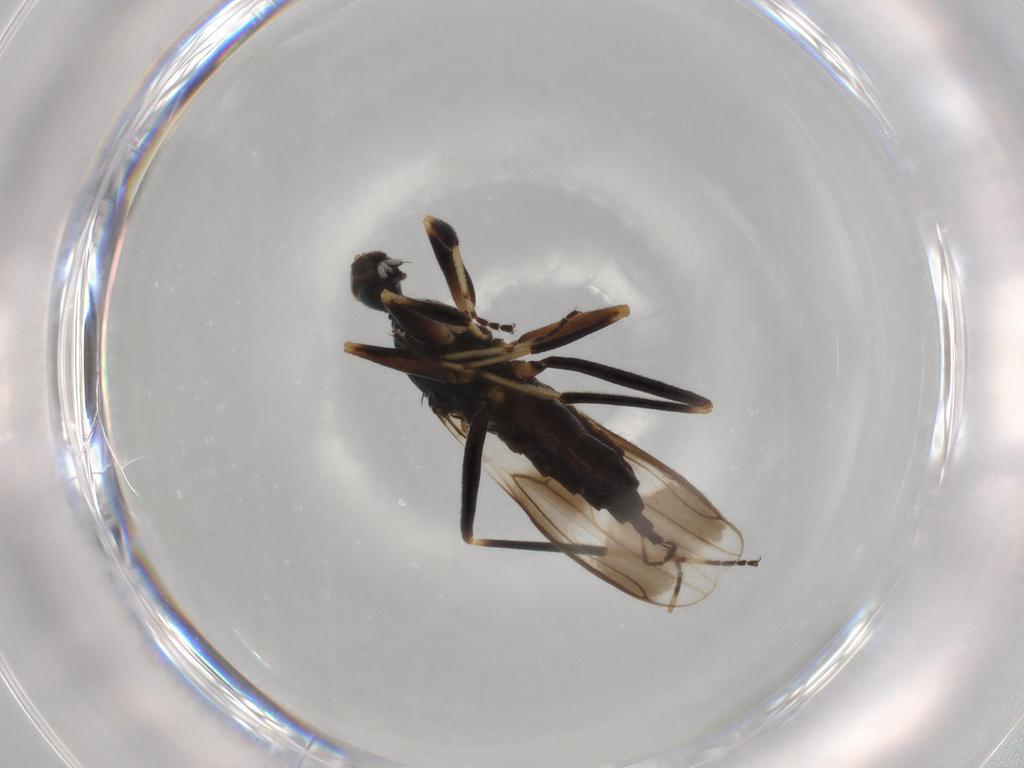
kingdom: Animalia
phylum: Arthropoda
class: Insecta
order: Diptera
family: Hybotidae
